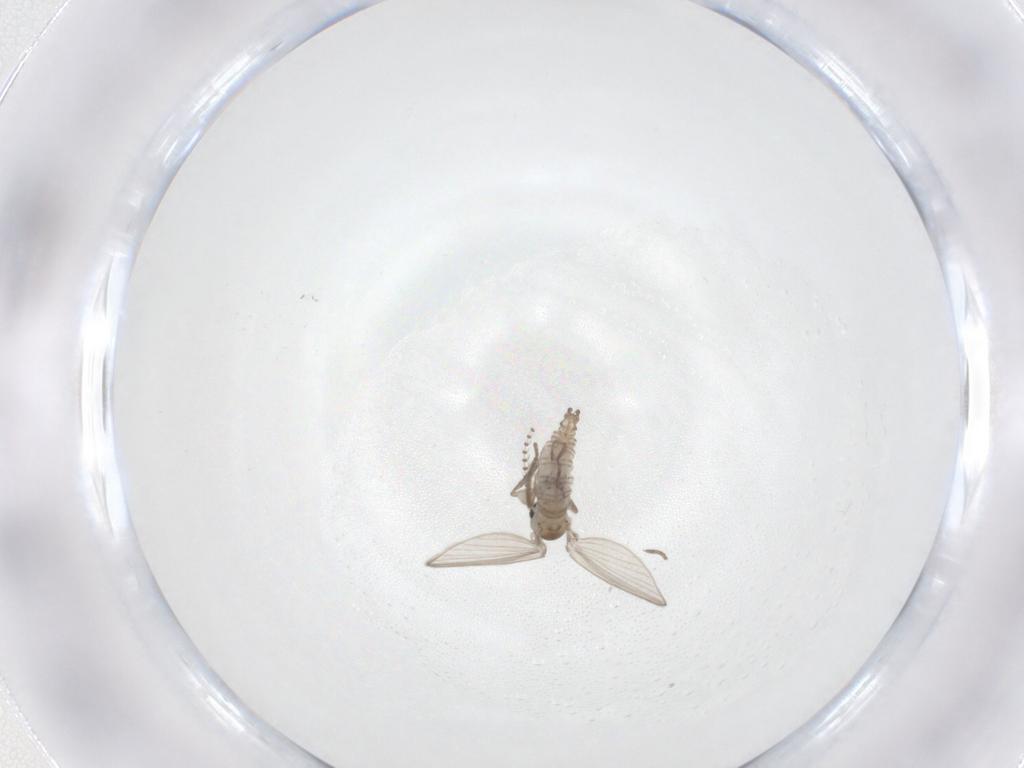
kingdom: Animalia
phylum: Arthropoda
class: Insecta
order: Diptera
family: Psychodidae
